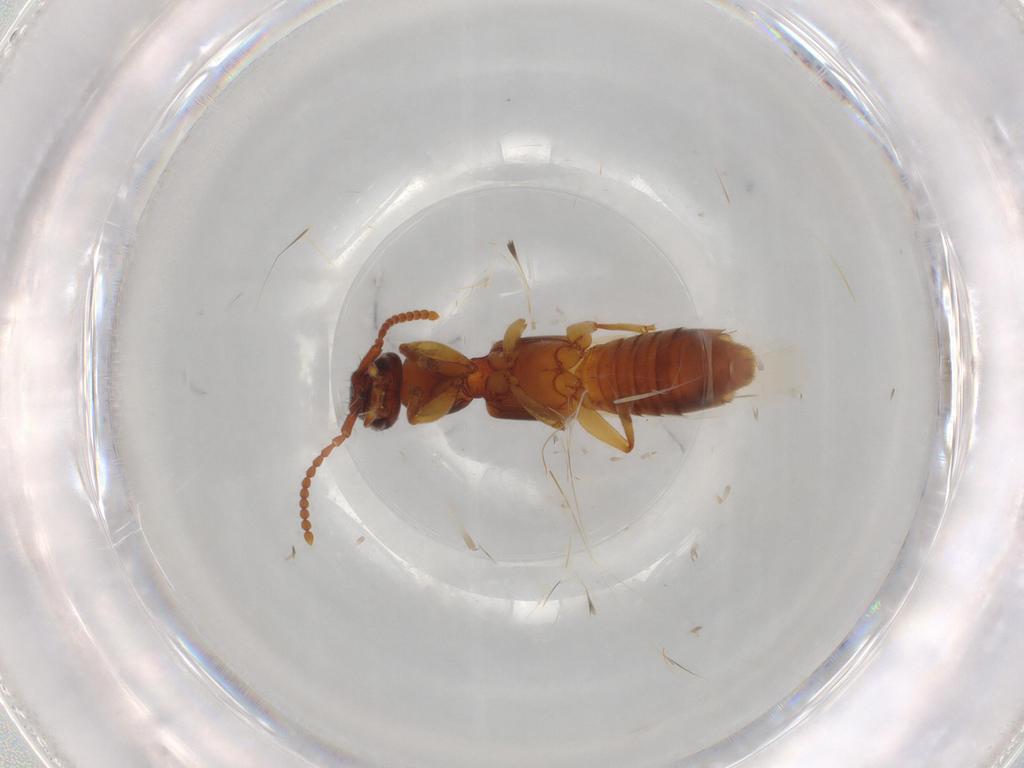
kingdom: Animalia
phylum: Arthropoda
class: Insecta
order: Coleoptera
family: Staphylinidae
